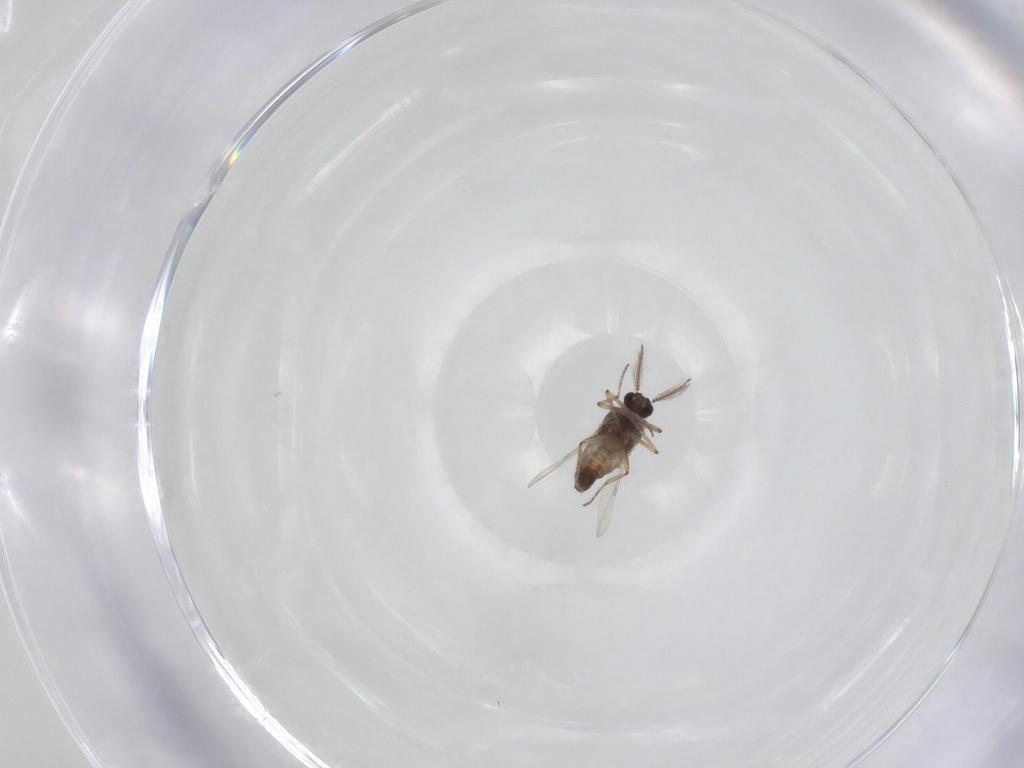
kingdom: Animalia
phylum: Arthropoda
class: Insecta
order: Diptera
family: Ceratopogonidae
